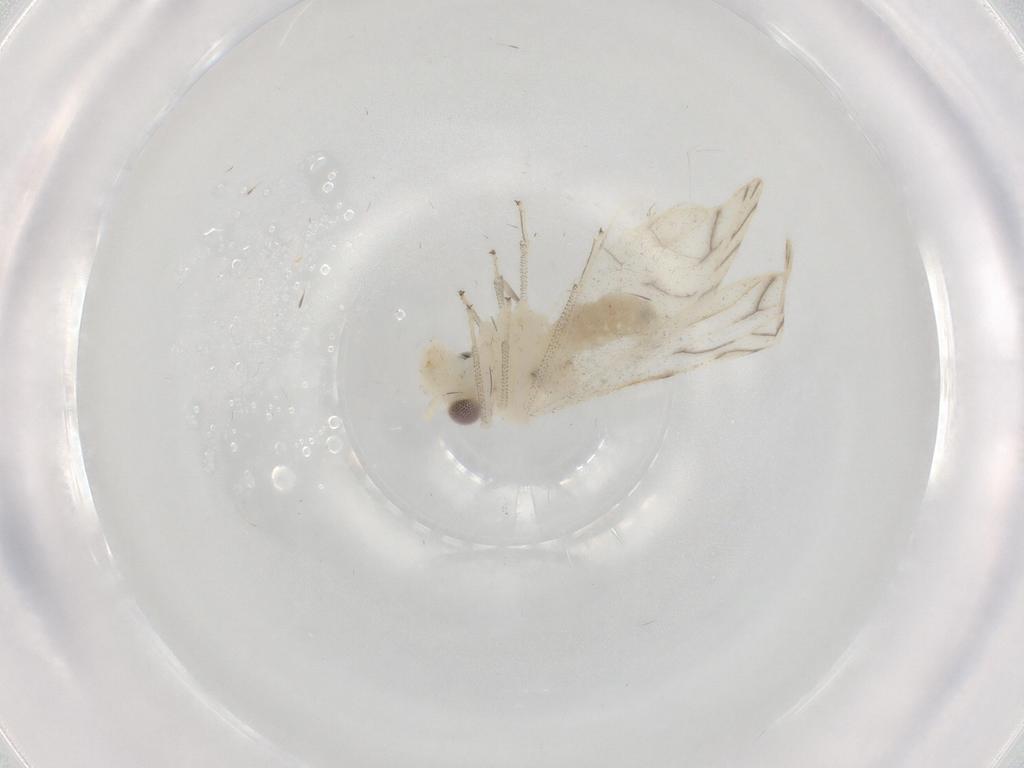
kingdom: Animalia
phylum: Arthropoda
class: Insecta
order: Psocodea
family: Caeciliusidae
